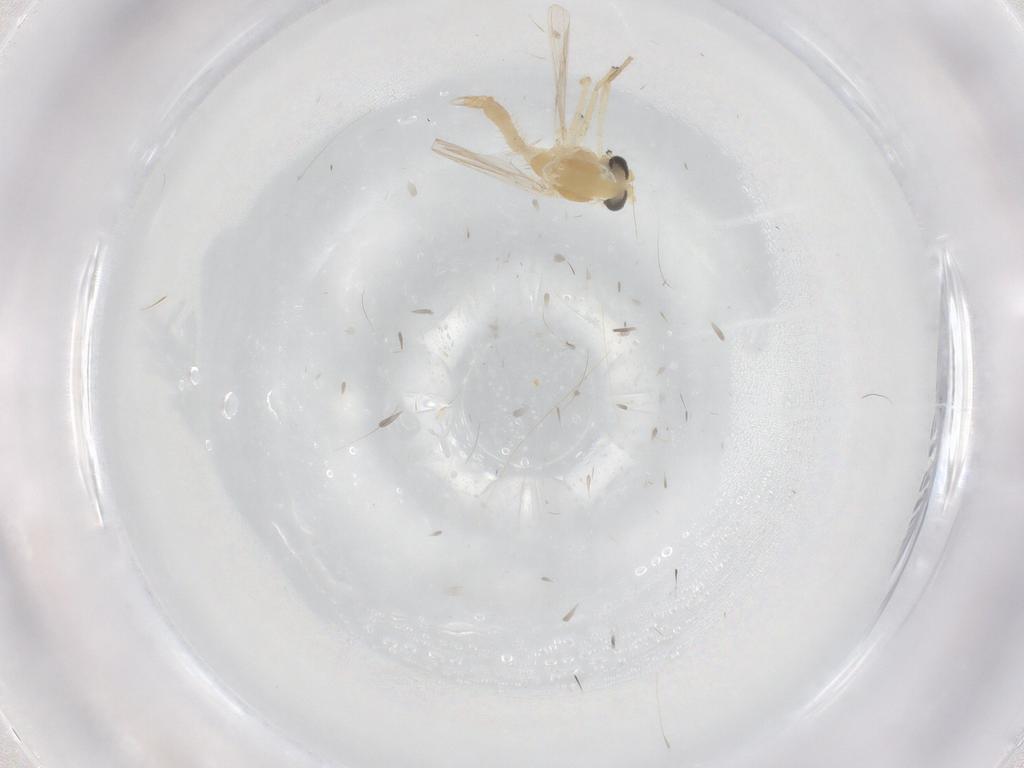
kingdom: Animalia
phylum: Arthropoda
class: Insecta
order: Diptera
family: Chironomidae
